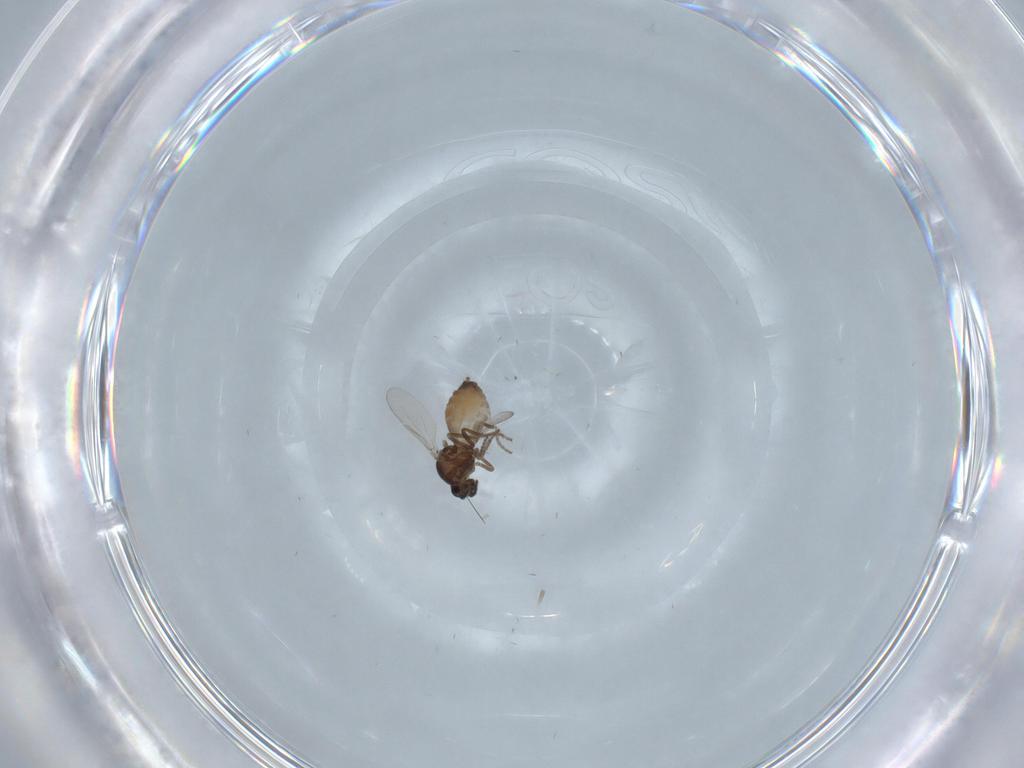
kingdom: Animalia
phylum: Arthropoda
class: Insecta
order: Diptera
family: Ceratopogonidae
